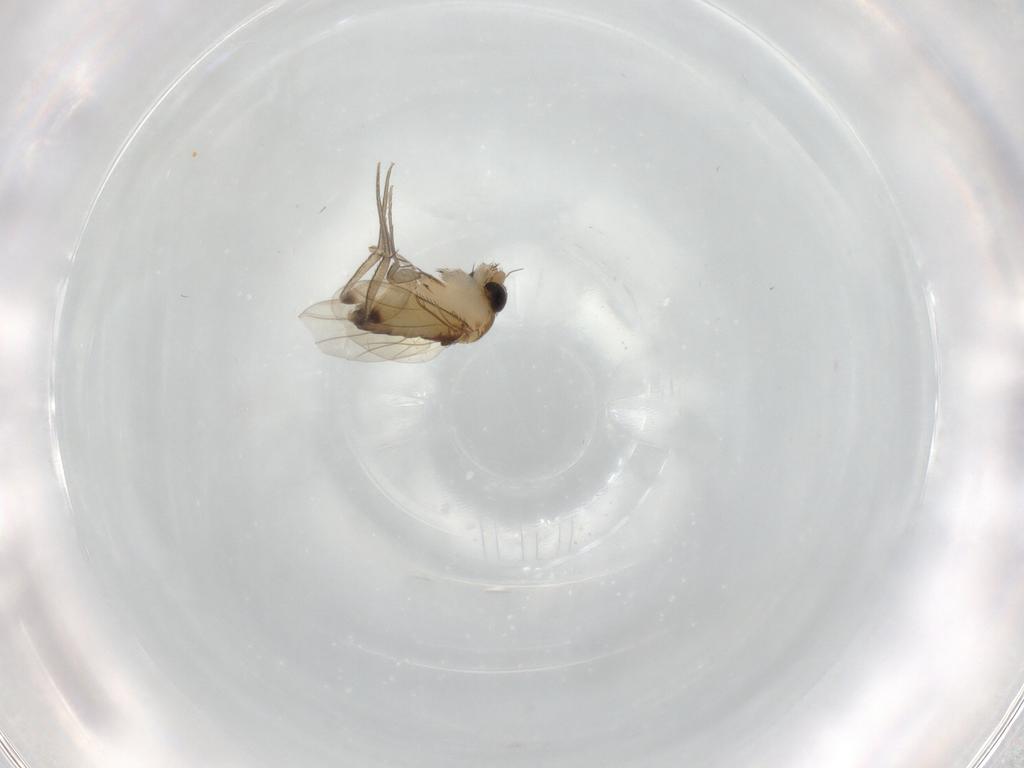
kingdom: Animalia
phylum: Arthropoda
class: Insecta
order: Diptera
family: Phoridae
